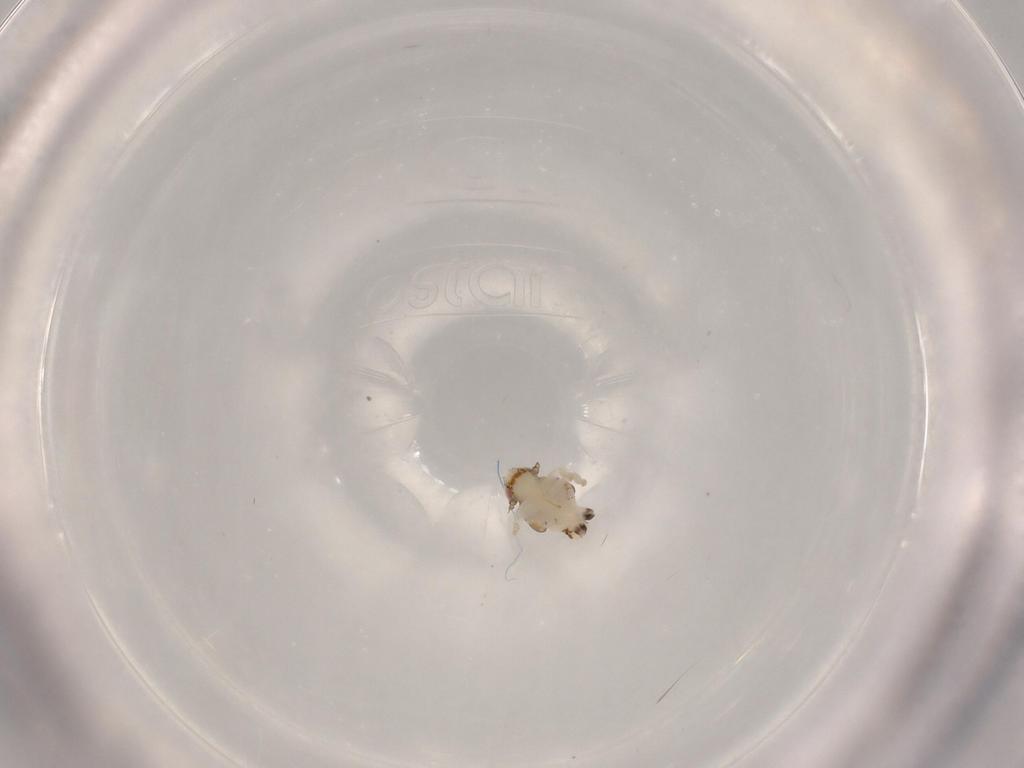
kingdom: Animalia
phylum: Arthropoda
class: Insecta
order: Hemiptera
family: Nogodinidae
